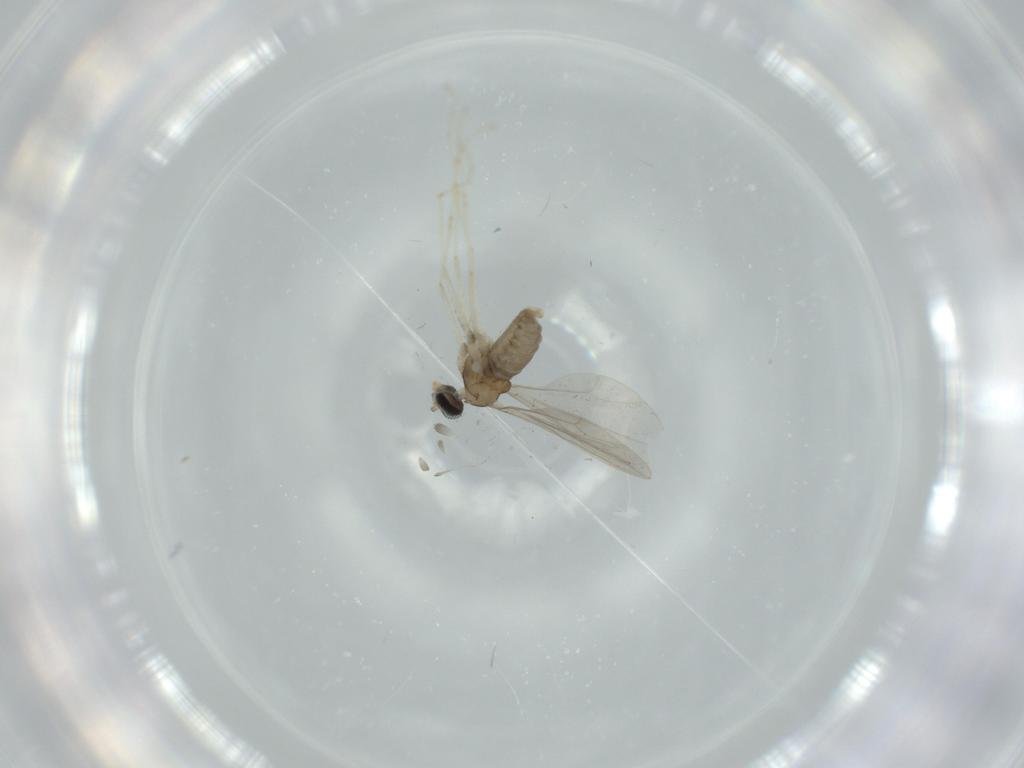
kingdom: Animalia
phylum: Arthropoda
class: Insecta
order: Diptera
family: Cecidomyiidae
